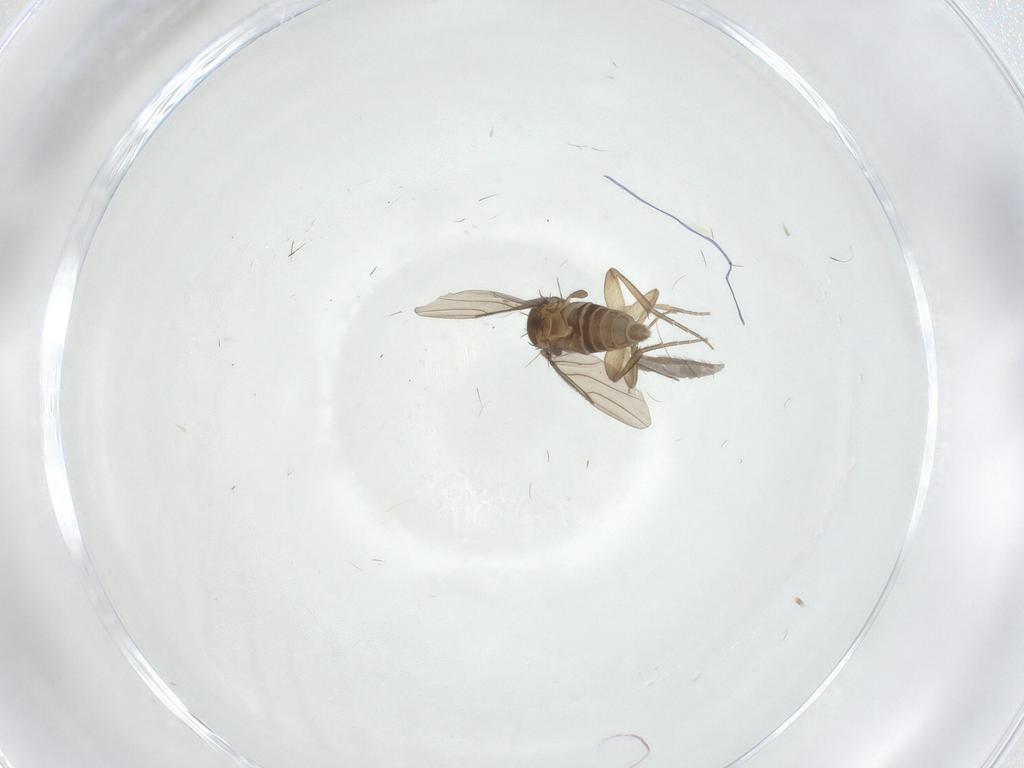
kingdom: Animalia
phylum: Arthropoda
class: Insecta
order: Diptera
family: Phoridae
